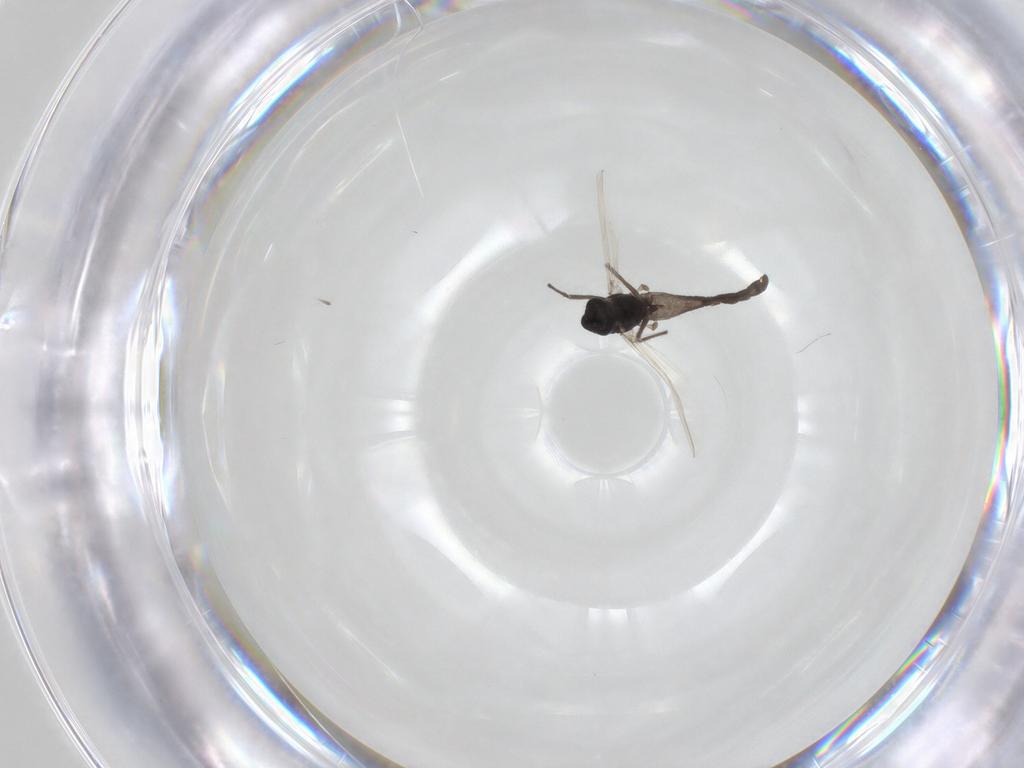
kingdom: Animalia
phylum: Arthropoda
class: Insecta
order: Diptera
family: Chironomidae
